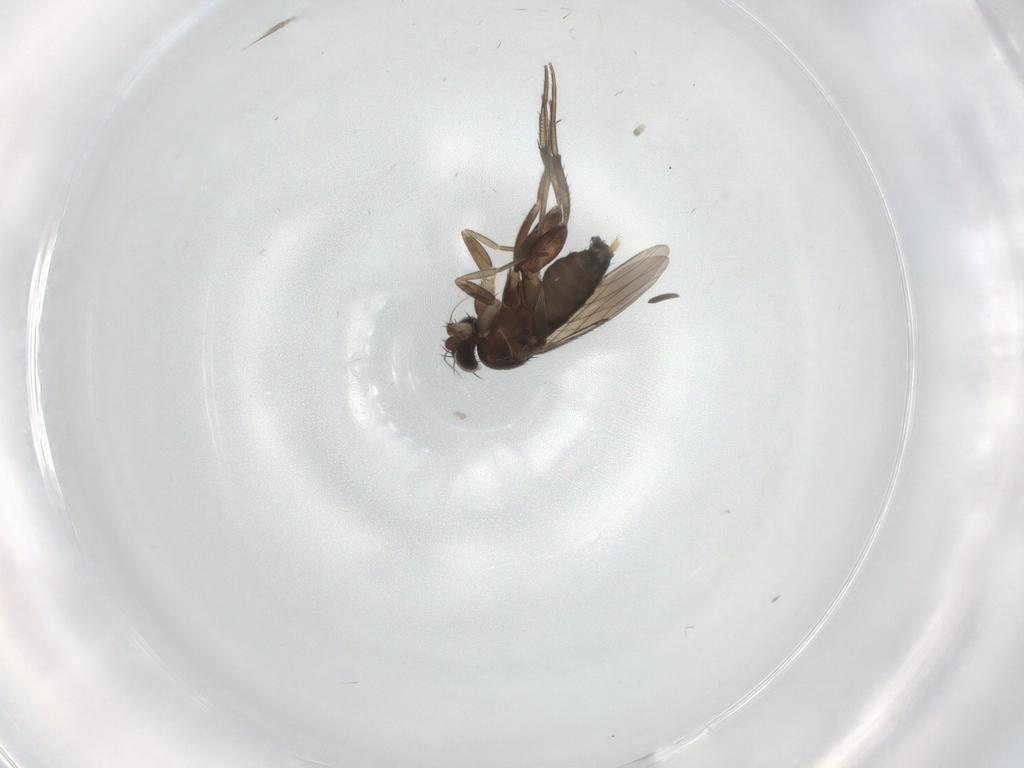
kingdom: Animalia
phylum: Arthropoda
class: Insecta
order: Diptera
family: Phoridae
